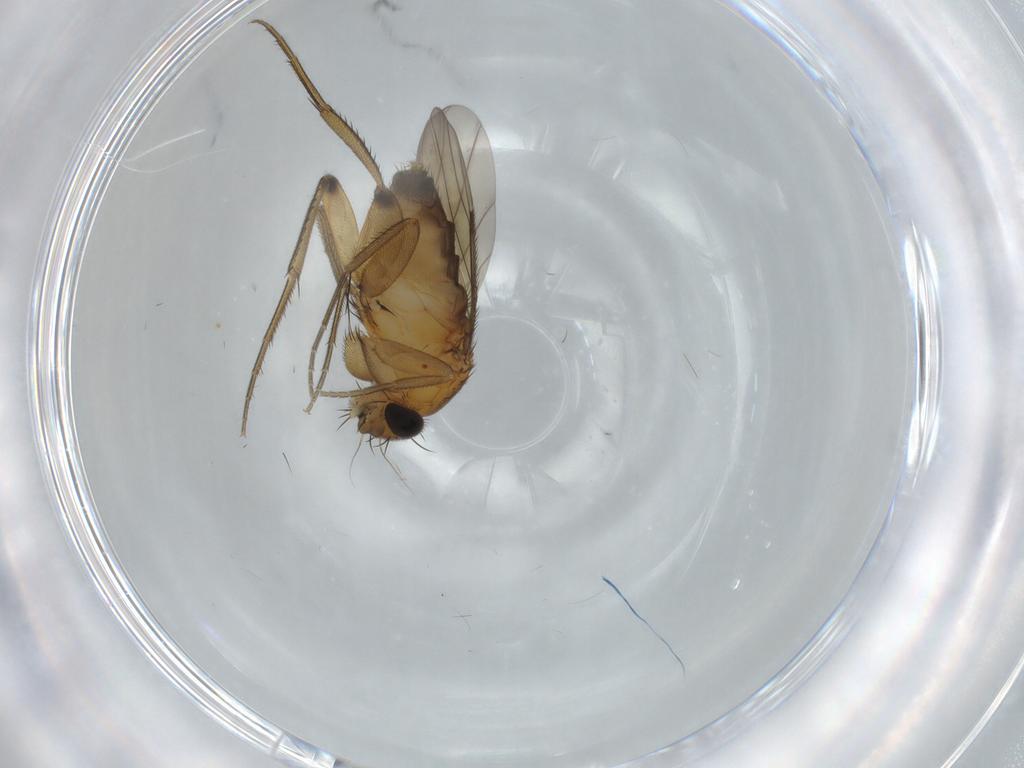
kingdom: Animalia
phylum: Arthropoda
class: Insecta
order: Diptera
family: Phoridae
